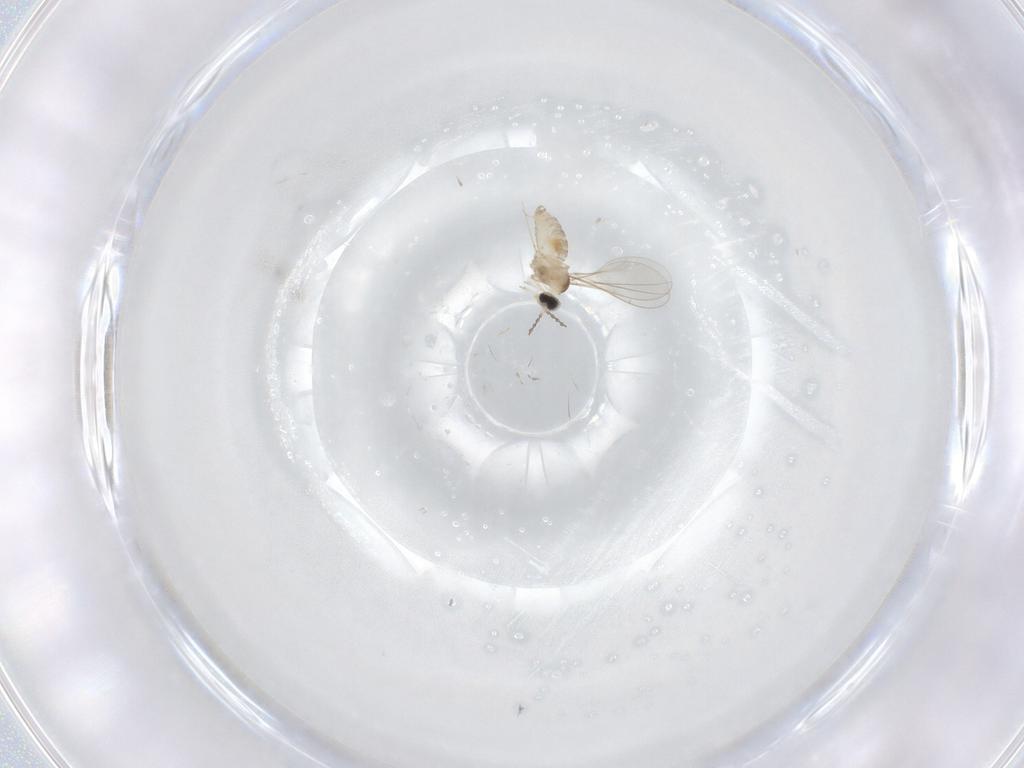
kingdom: Animalia
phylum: Arthropoda
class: Insecta
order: Diptera
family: Cecidomyiidae
